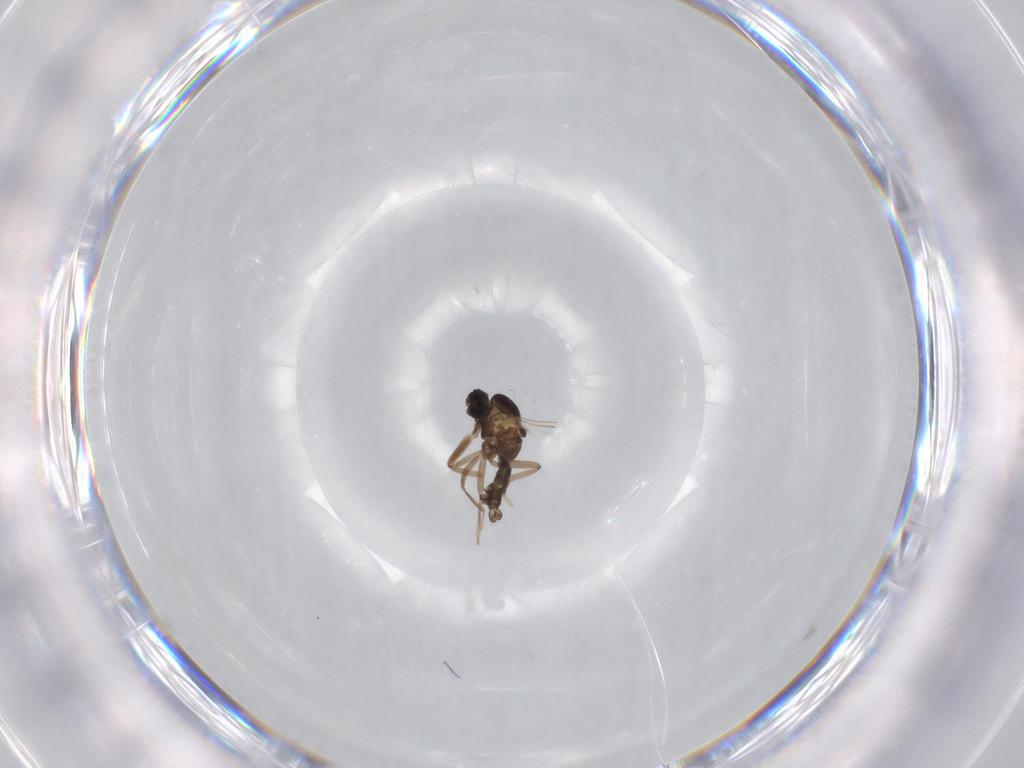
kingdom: Animalia
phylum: Arthropoda
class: Insecta
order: Diptera
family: Cecidomyiidae
